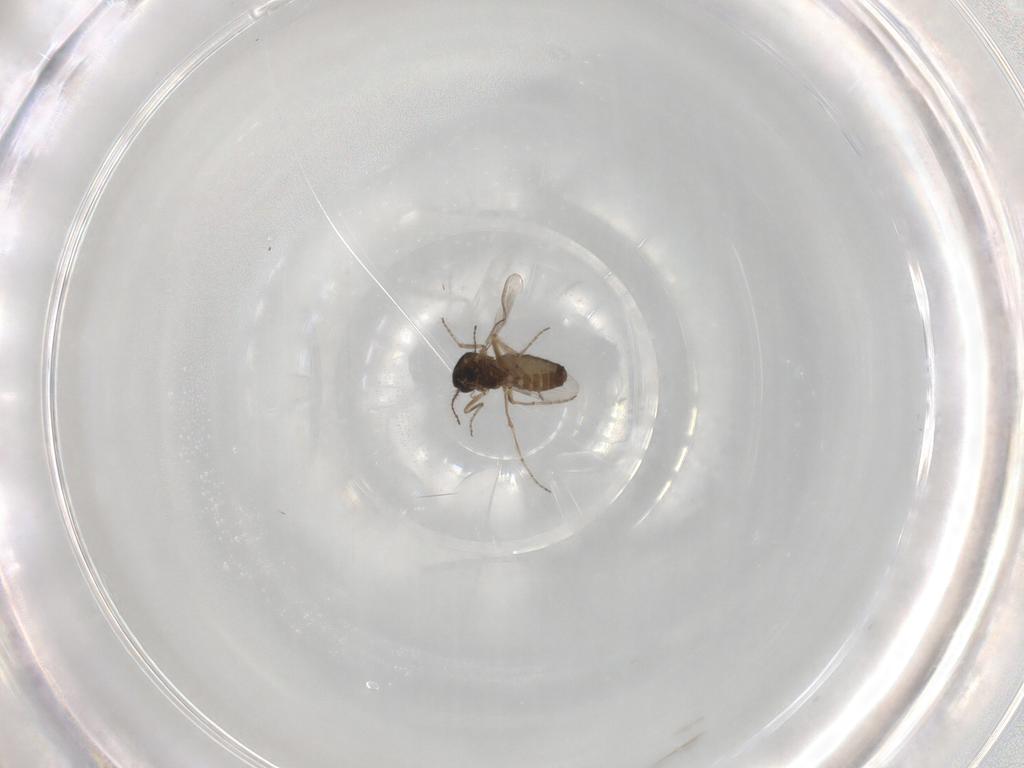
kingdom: Animalia
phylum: Arthropoda
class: Insecta
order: Diptera
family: Ceratopogonidae
